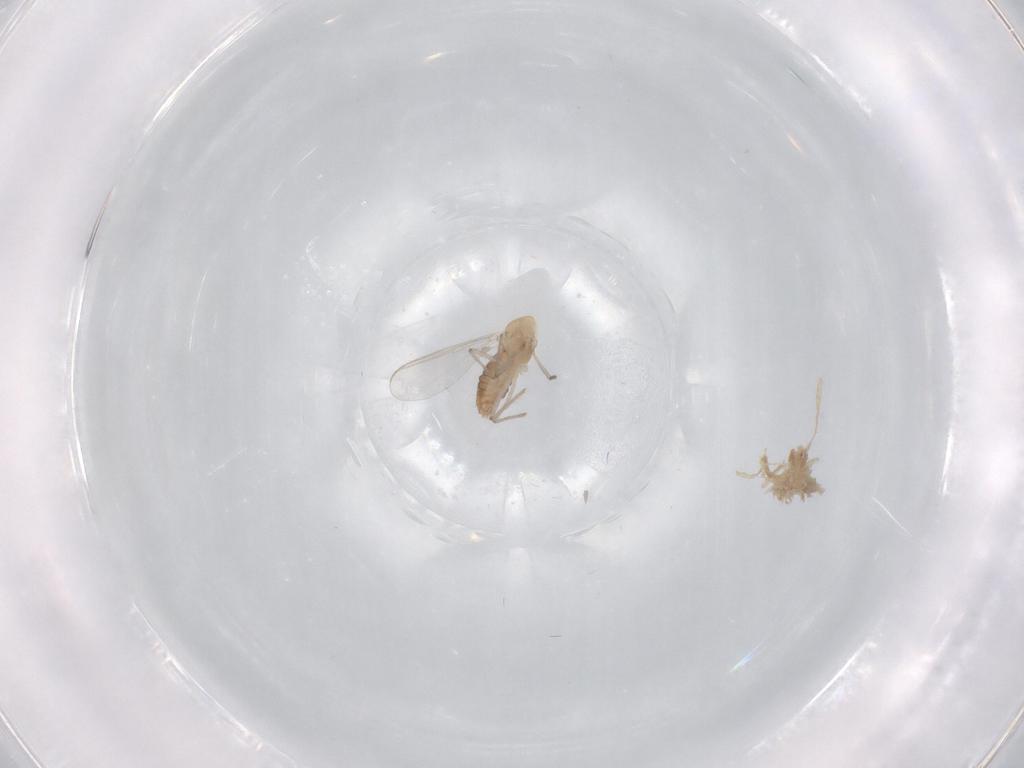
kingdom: Animalia
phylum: Arthropoda
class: Insecta
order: Diptera
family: Chironomidae
